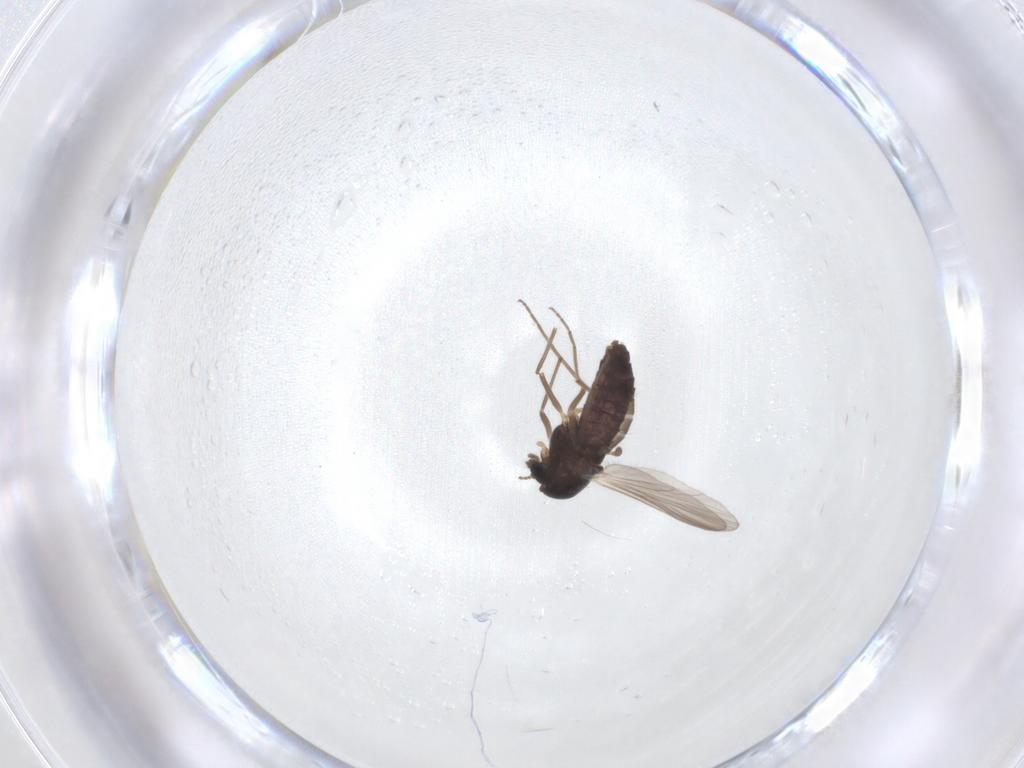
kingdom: Animalia
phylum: Arthropoda
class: Insecta
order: Diptera
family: Chironomidae
